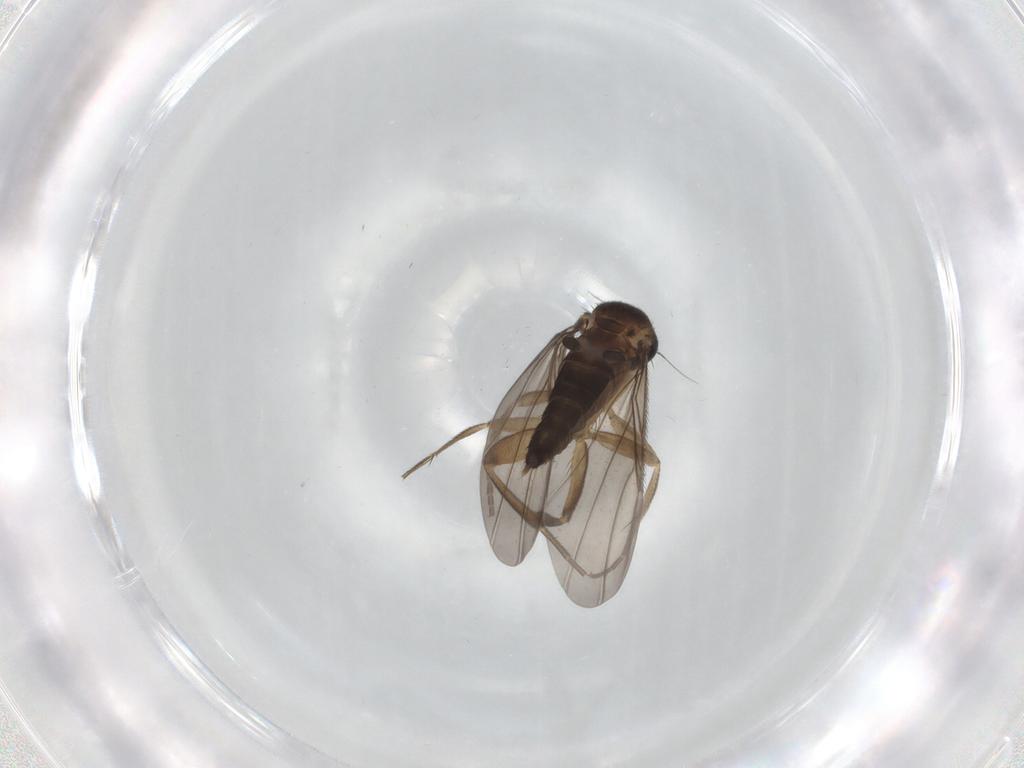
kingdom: Animalia
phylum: Arthropoda
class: Insecta
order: Diptera
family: Phoridae
